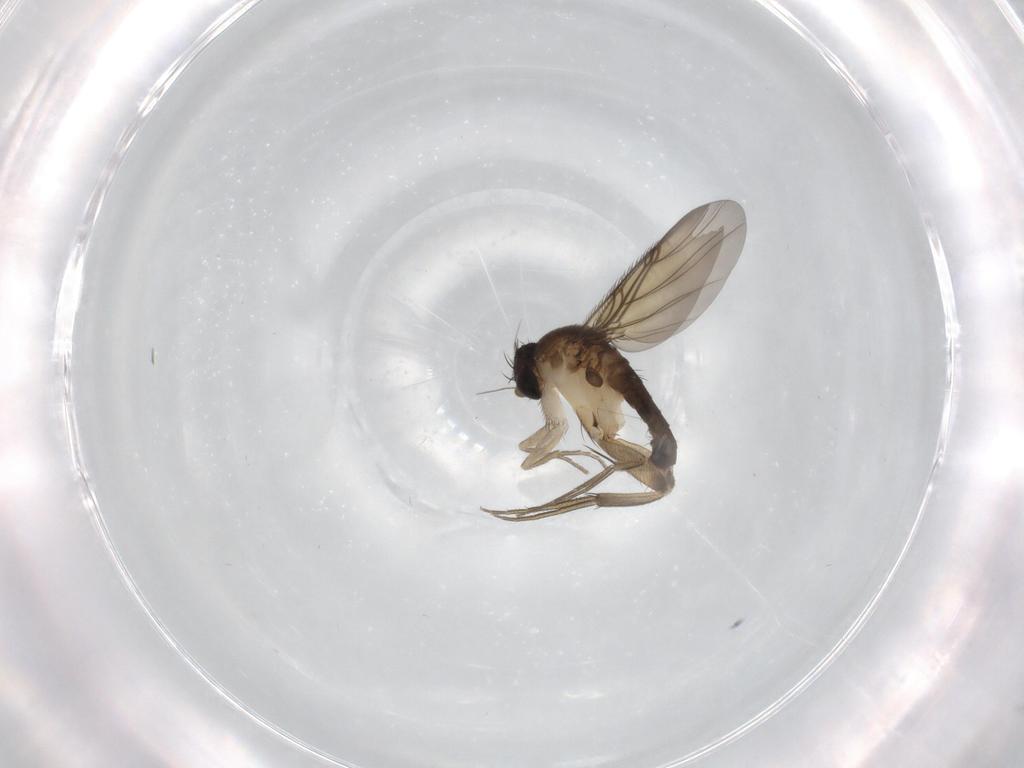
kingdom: Animalia
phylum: Arthropoda
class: Insecta
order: Diptera
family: Phoridae
